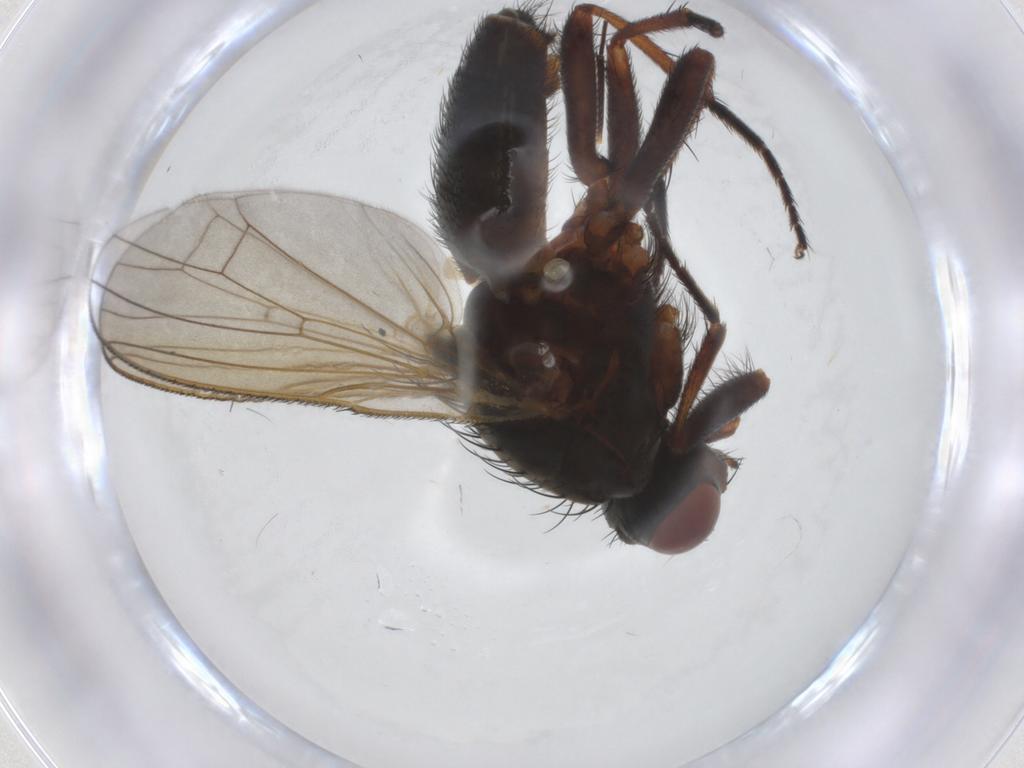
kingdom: Animalia
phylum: Arthropoda
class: Insecta
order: Diptera
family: Anthomyiidae
